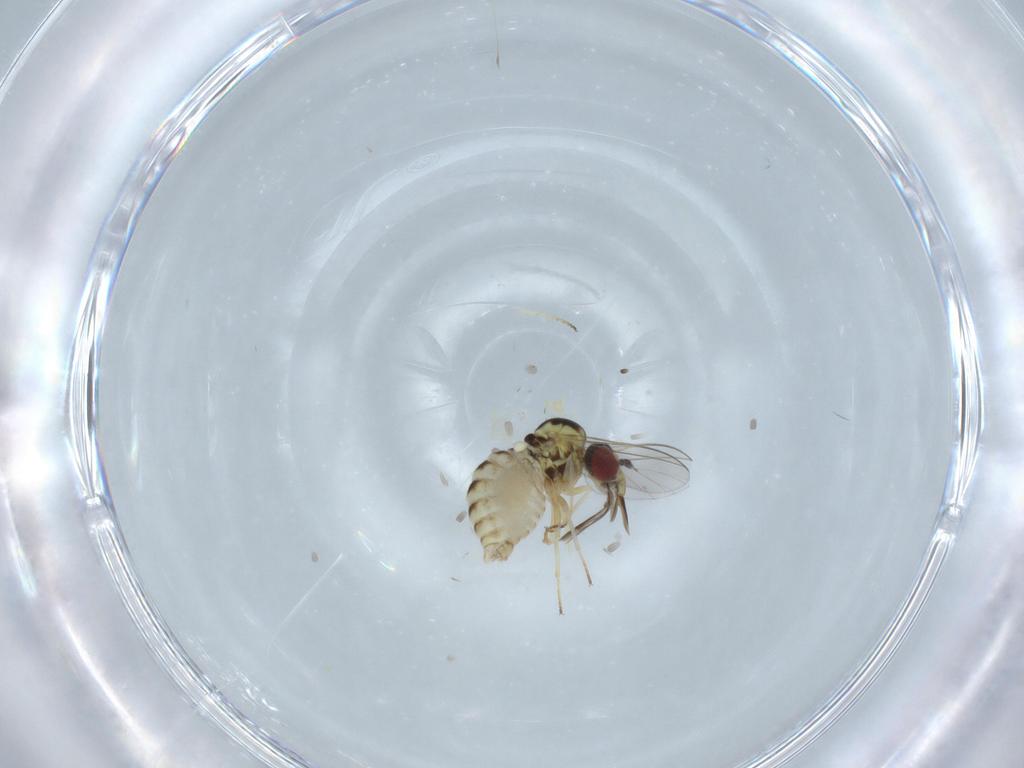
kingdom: Animalia
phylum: Arthropoda
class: Insecta
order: Diptera
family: Bombyliidae
